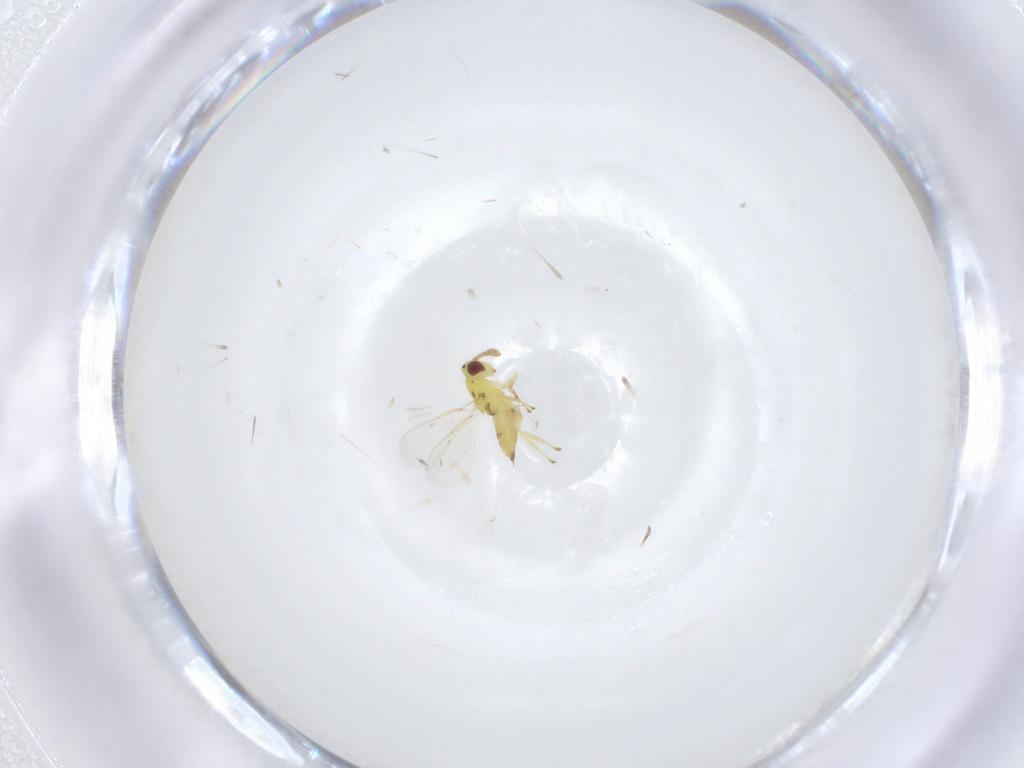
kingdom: Animalia
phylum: Arthropoda
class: Insecta
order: Hymenoptera
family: Eulophidae
